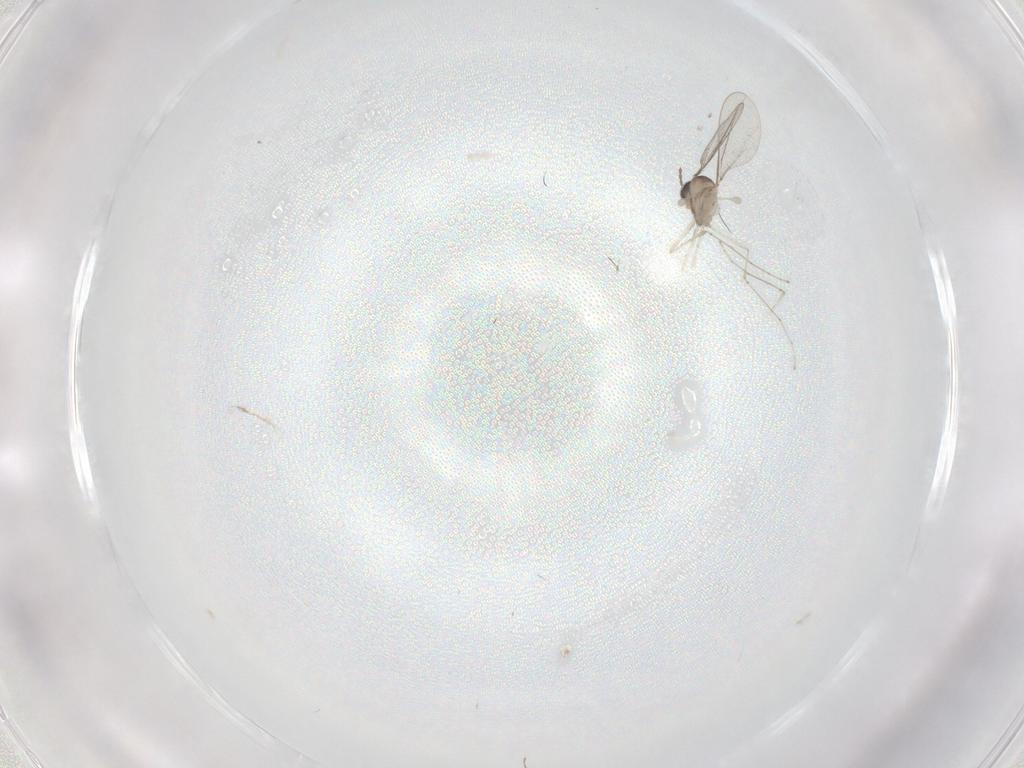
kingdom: Animalia
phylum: Arthropoda
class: Insecta
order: Diptera
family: Cecidomyiidae
